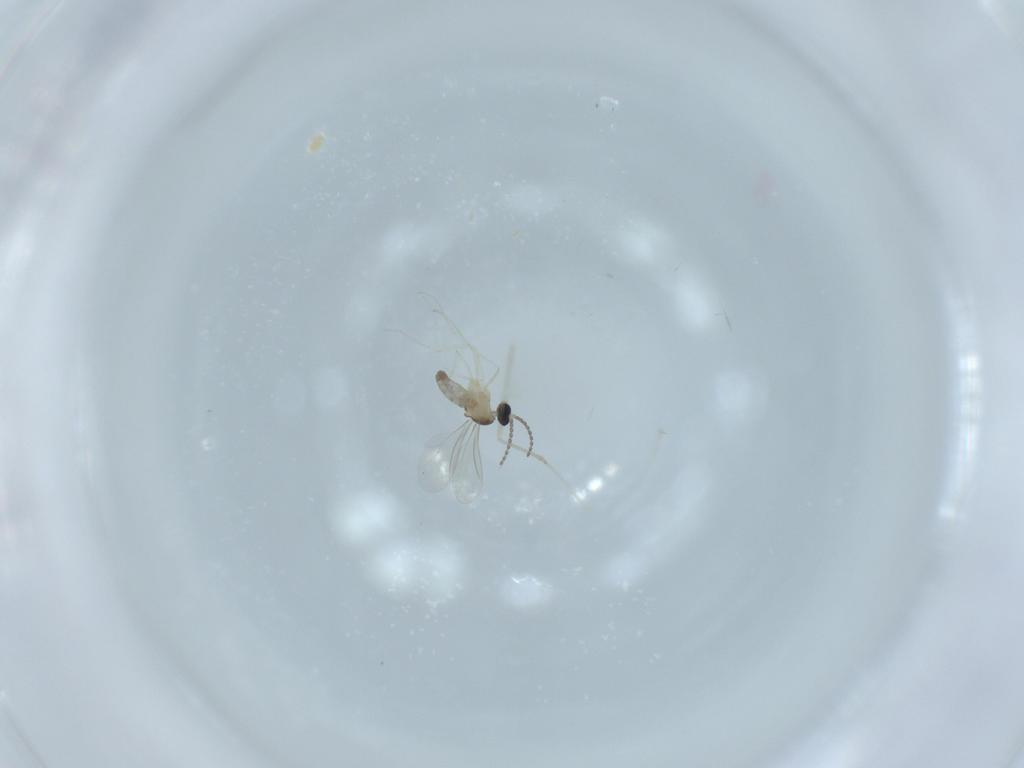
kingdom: Animalia
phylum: Arthropoda
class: Insecta
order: Diptera
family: Cecidomyiidae
